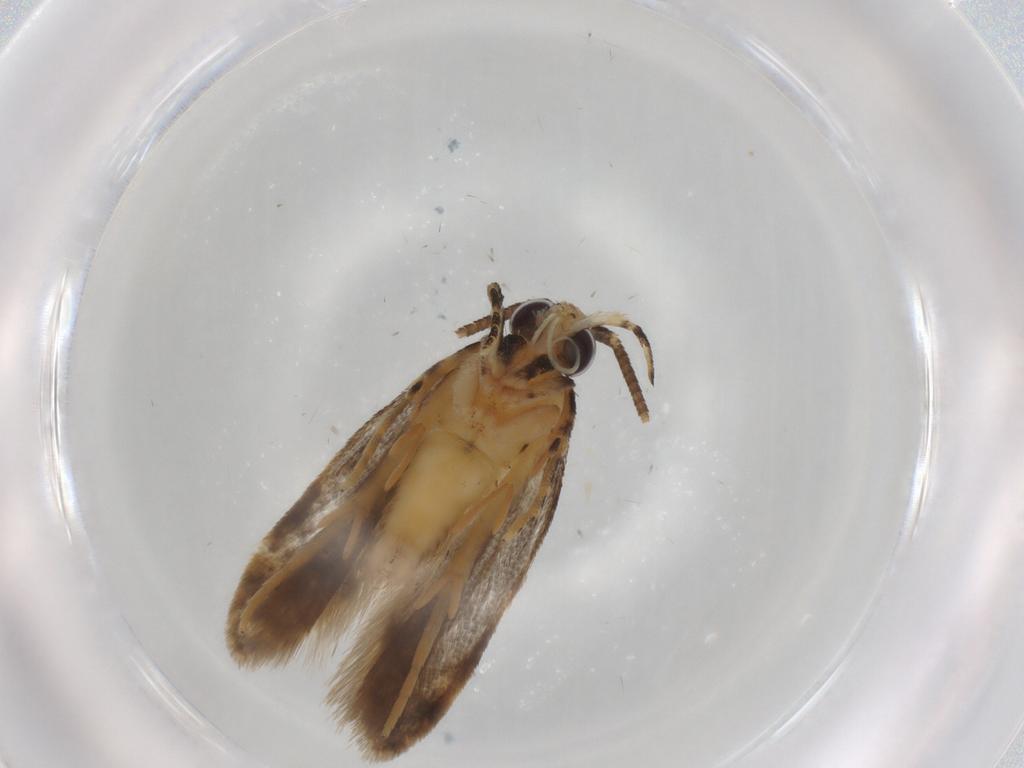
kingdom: Animalia
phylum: Arthropoda
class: Insecta
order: Lepidoptera
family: Autostichidae
